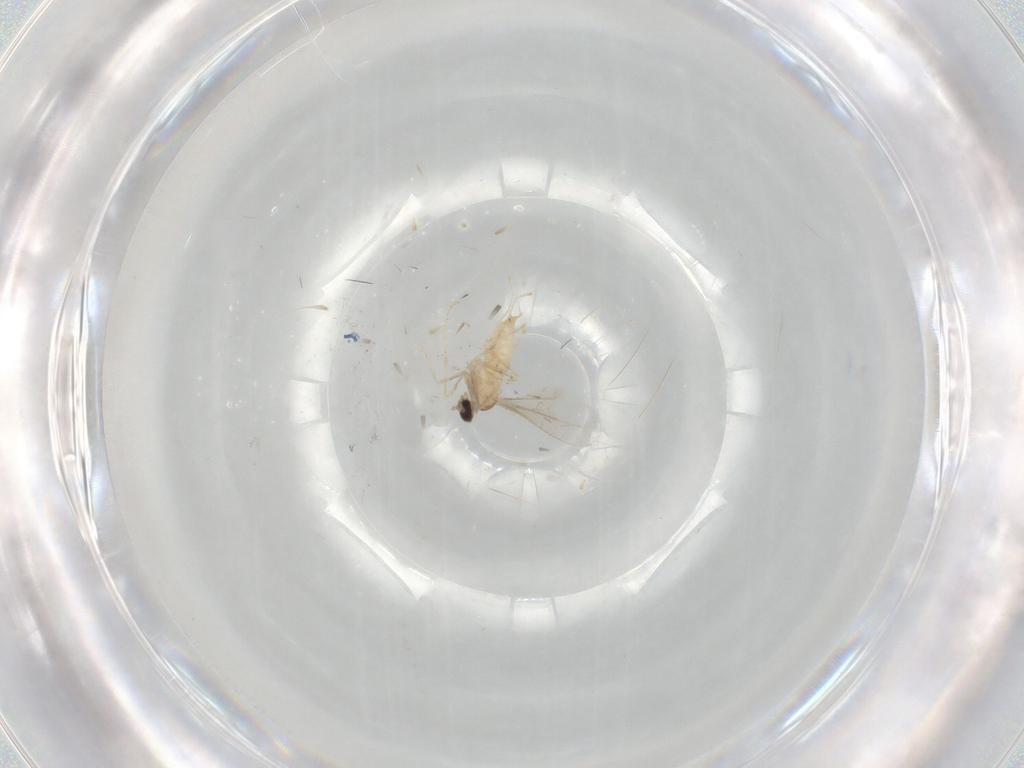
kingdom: Animalia
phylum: Arthropoda
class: Insecta
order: Diptera
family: Cecidomyiidae
